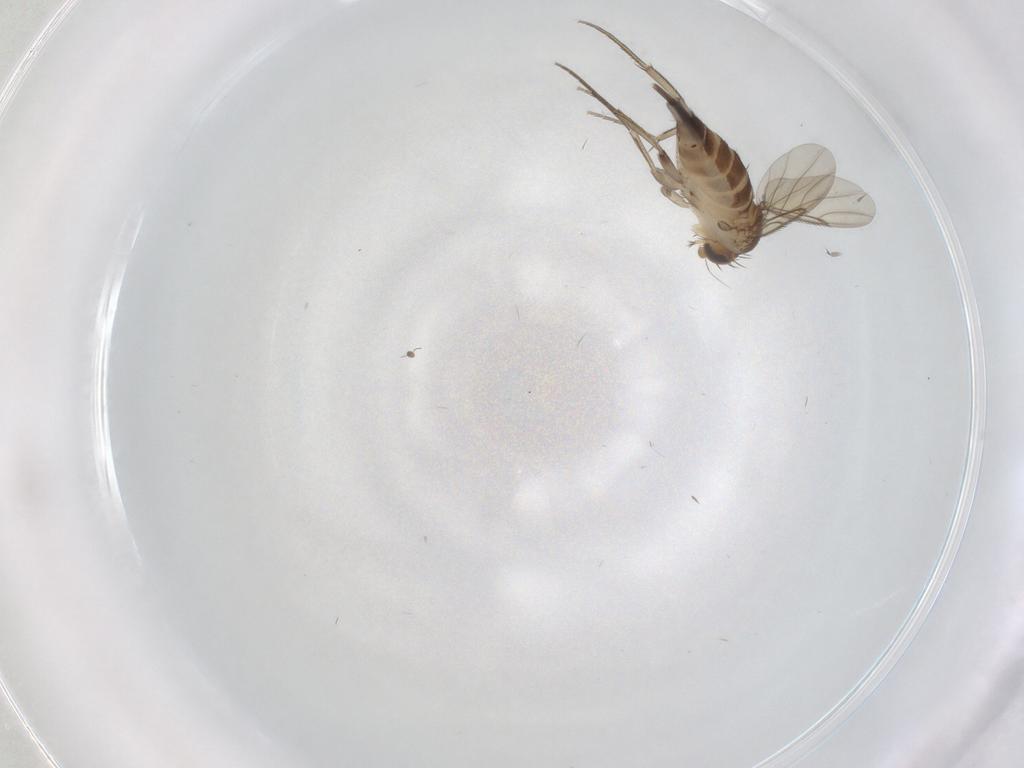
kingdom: Animalia
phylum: Arthropoda
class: Insecta
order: Diptera
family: Phoridae
